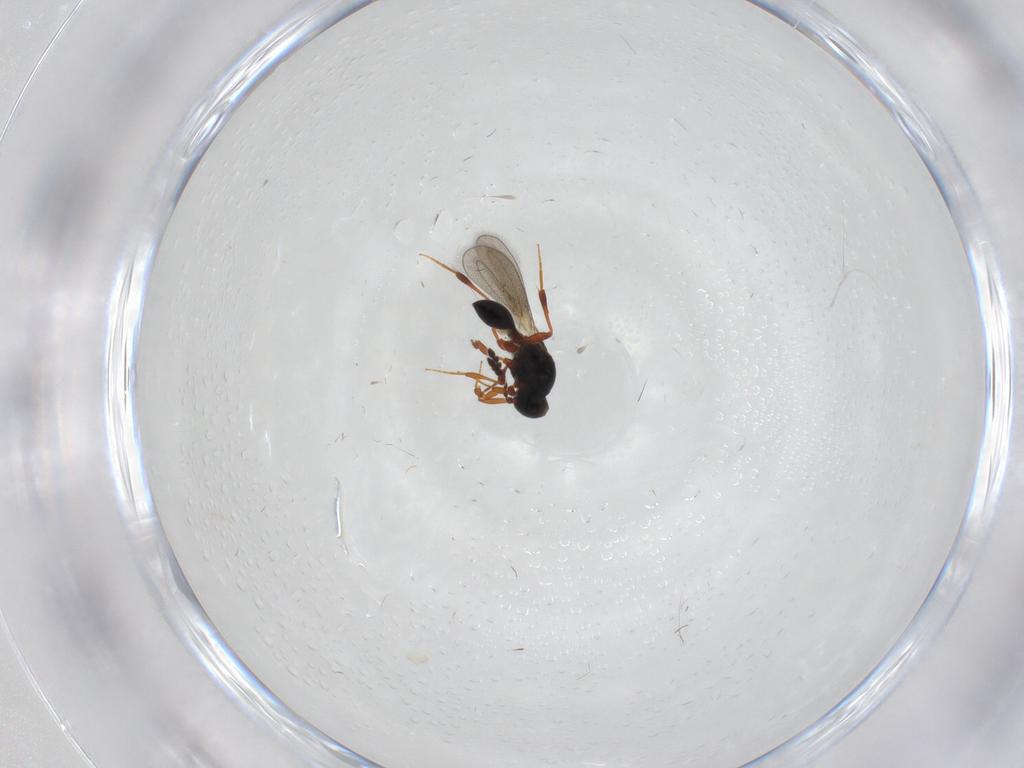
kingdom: Animalia
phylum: Arthropoda
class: Insecta
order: Hymenoptera
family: Platygastridae
